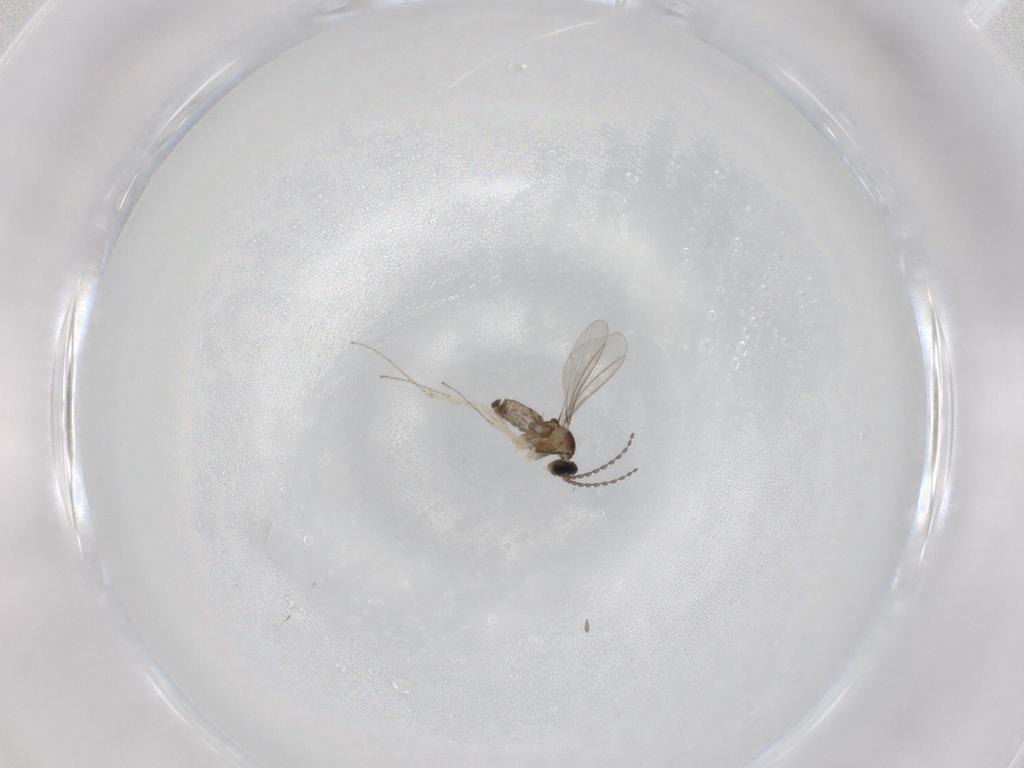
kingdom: Animalia
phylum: Arthropoda
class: Insecta
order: Diptera
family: Cecidomyiidae
